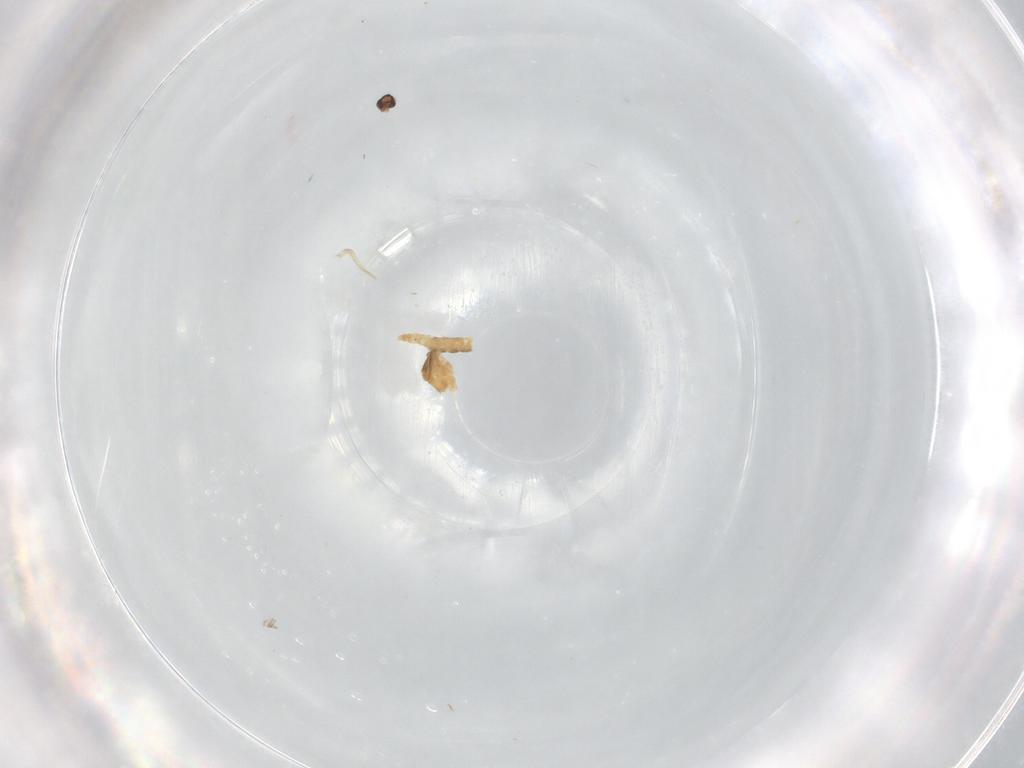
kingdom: Animalia
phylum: Arthropoda
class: Insecta
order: Diptera
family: Cecidomyiidae
